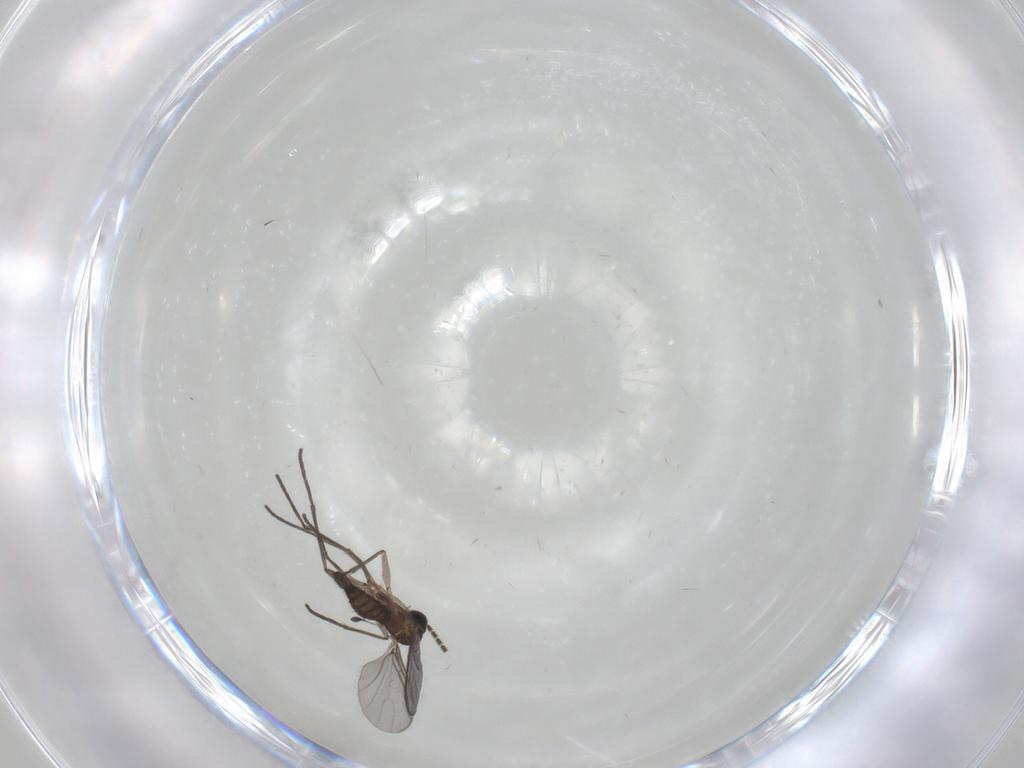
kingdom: Animalia
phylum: Arthropoda
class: Insecta
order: Diptera
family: Sciaridae
